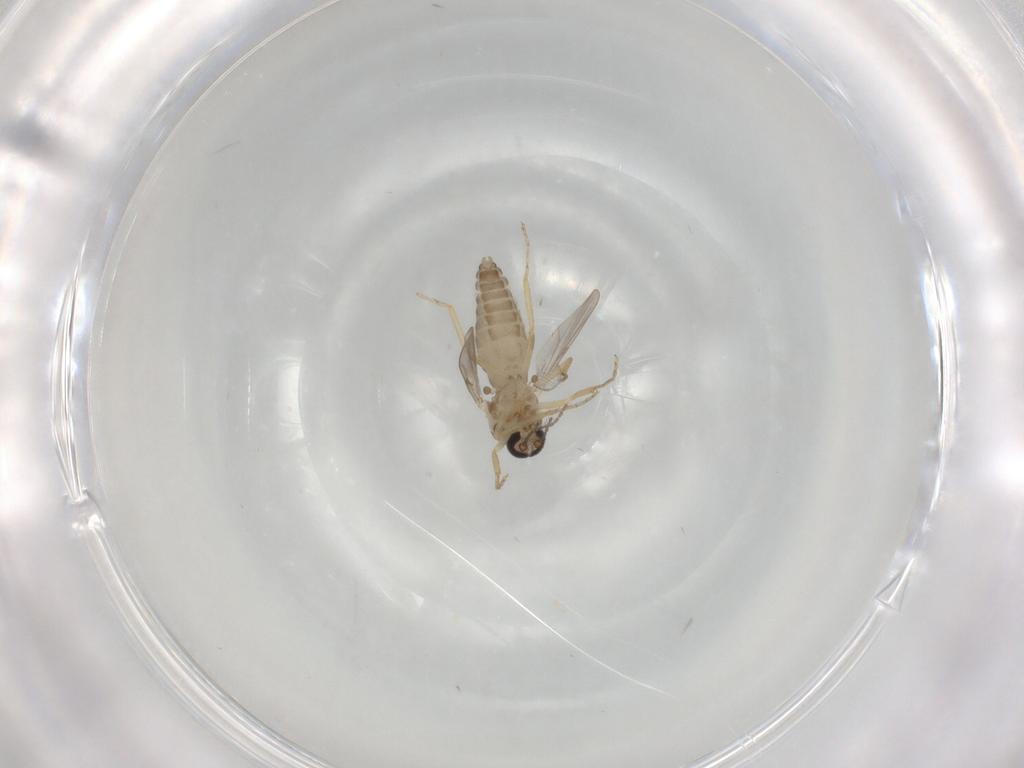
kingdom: Animalia
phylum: Arthropoda
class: Insecta
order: Diptera
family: Ceratopogonidae
